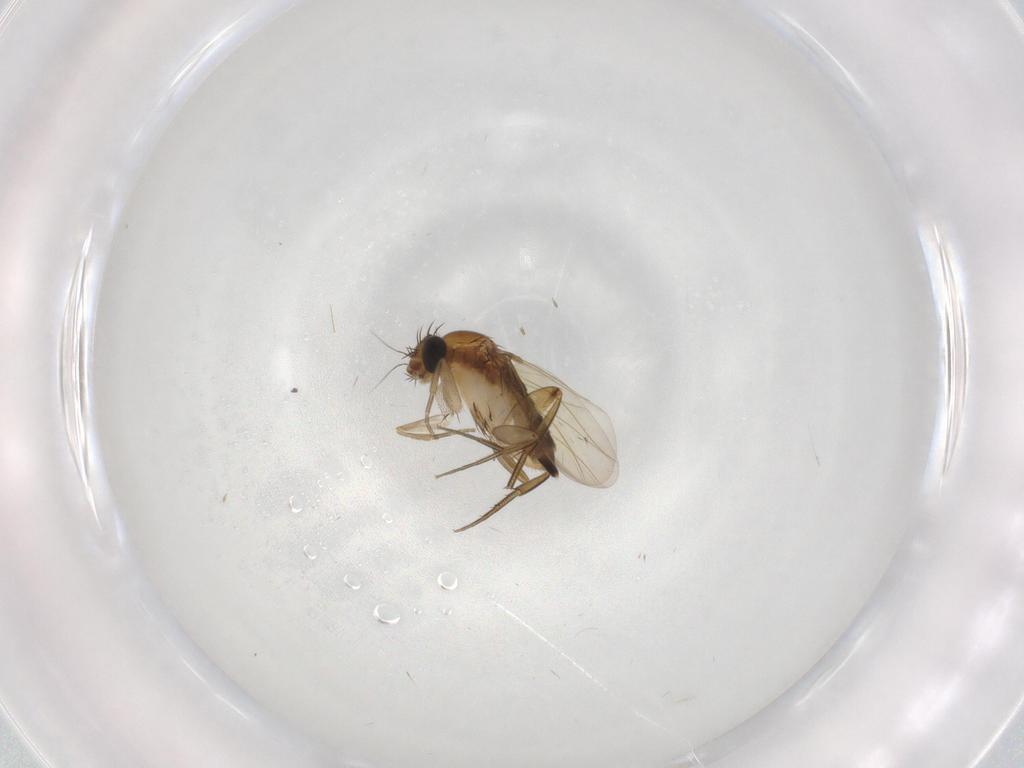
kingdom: Animalia
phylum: Arthropoda
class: Insecta
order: Diptera
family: Phoridae
